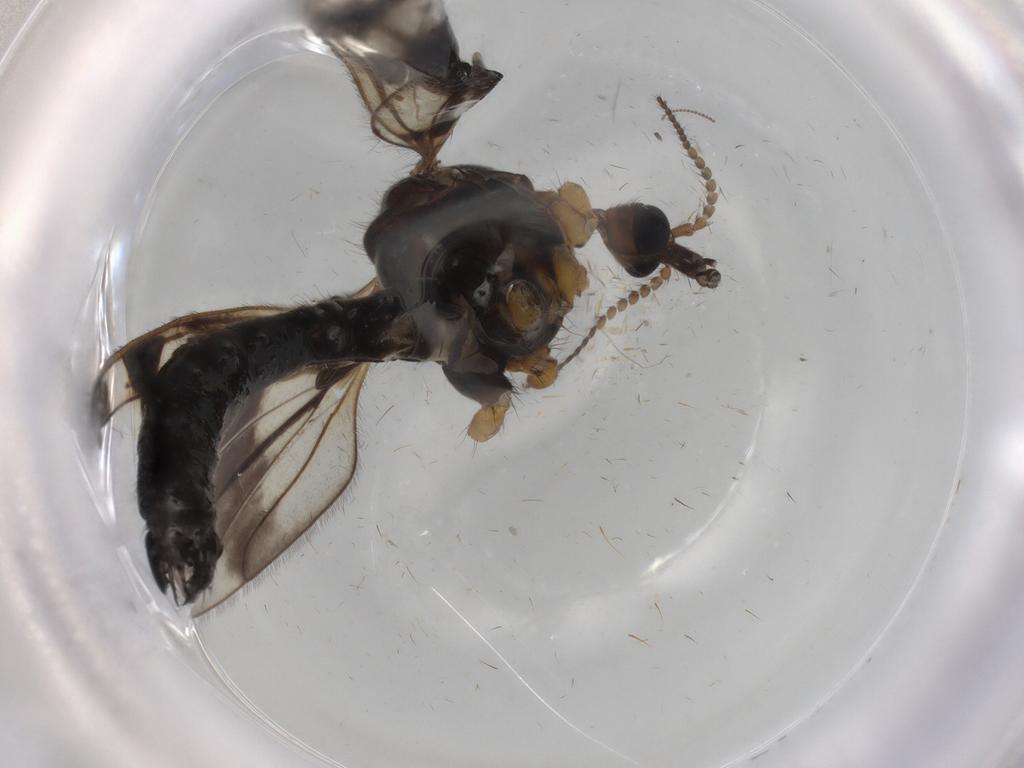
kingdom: Animalia
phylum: Arthropoda
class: Insecta
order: Diptera
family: Limoniidae
